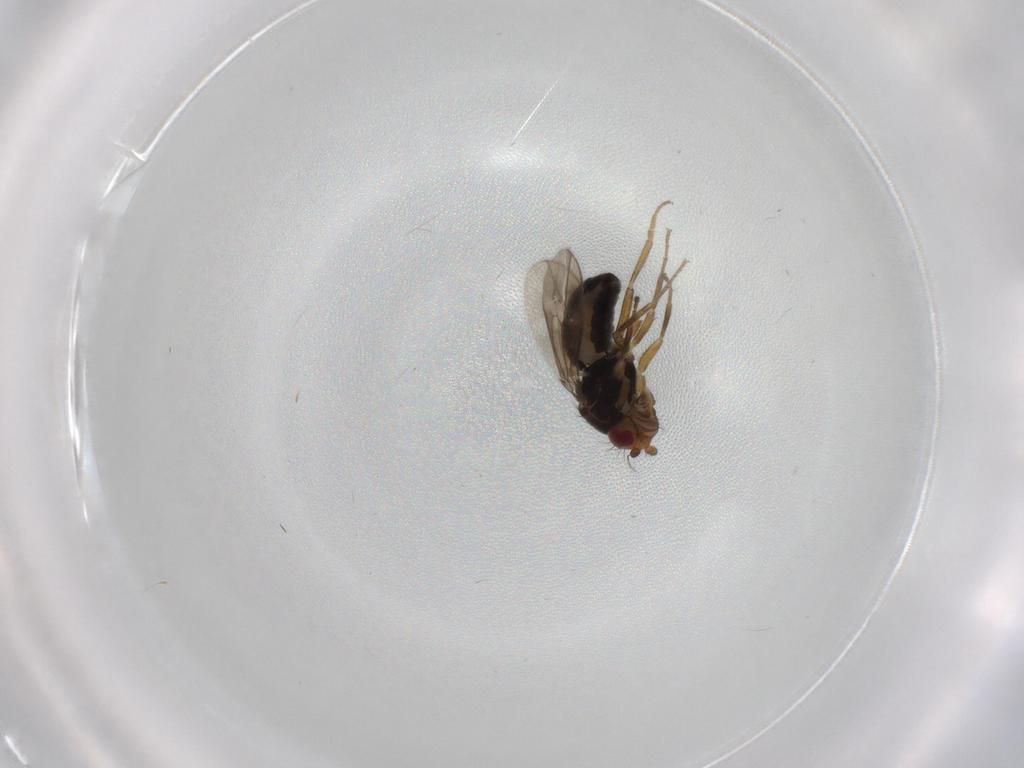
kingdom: Animalia
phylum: Arthropoda
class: Insecta
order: Diptera
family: Sphaeroceridae
